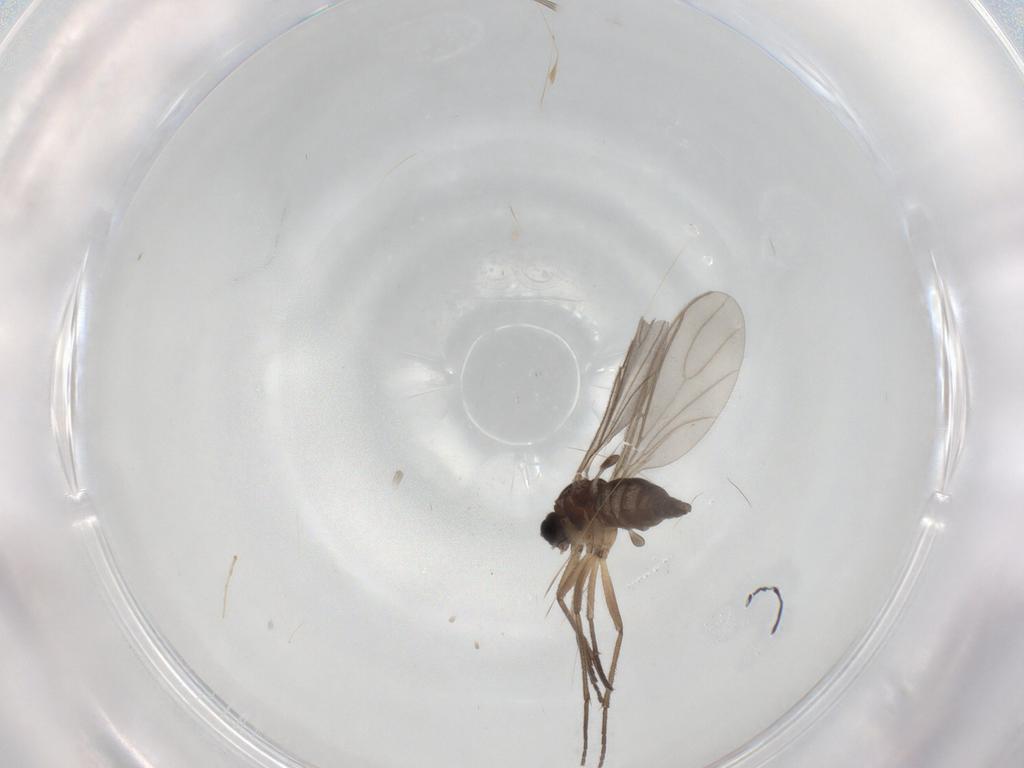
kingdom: Animalia
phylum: Arthropoda
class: Insecta
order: Diptera
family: Sciaridae
